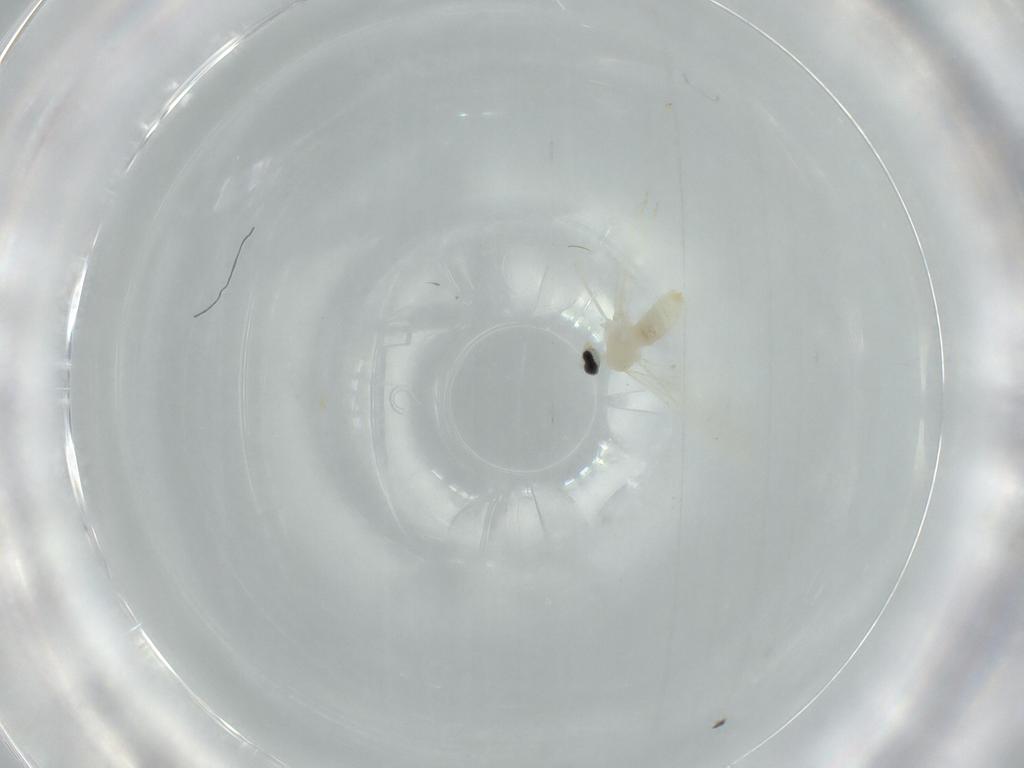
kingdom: Animalia
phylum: Arthropoda
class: Insecta
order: Diptera
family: Cecidomyiidae
